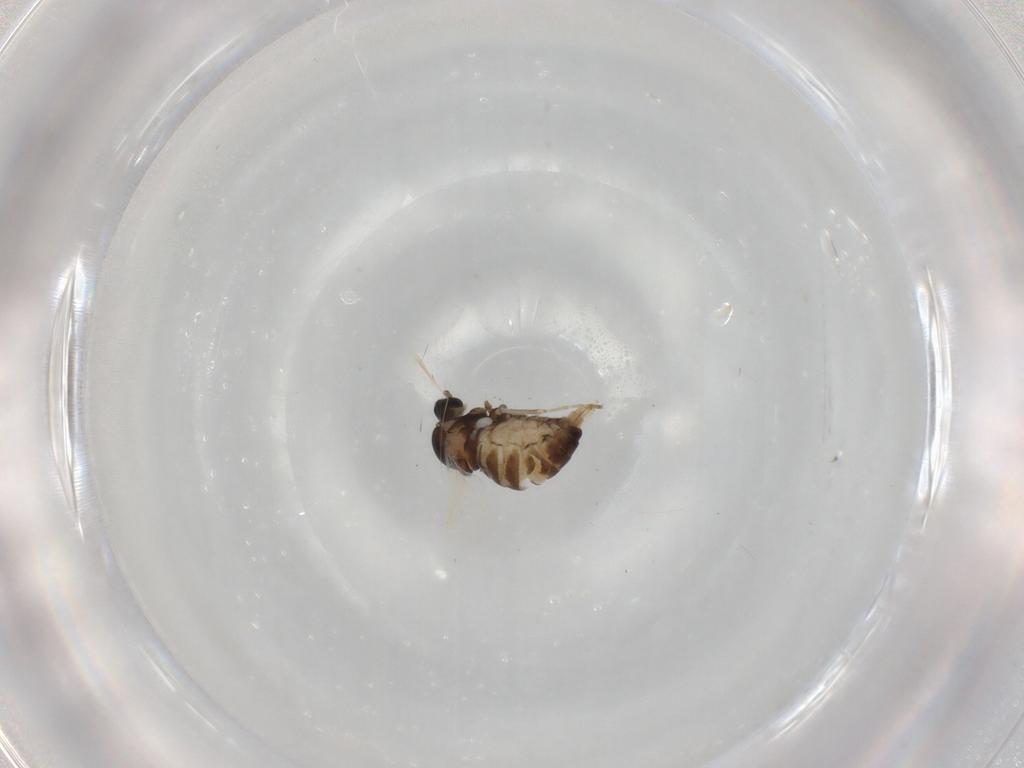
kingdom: Animalia
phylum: Arthropoda
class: Insecta
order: Diptera
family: Cecidomyiidae
